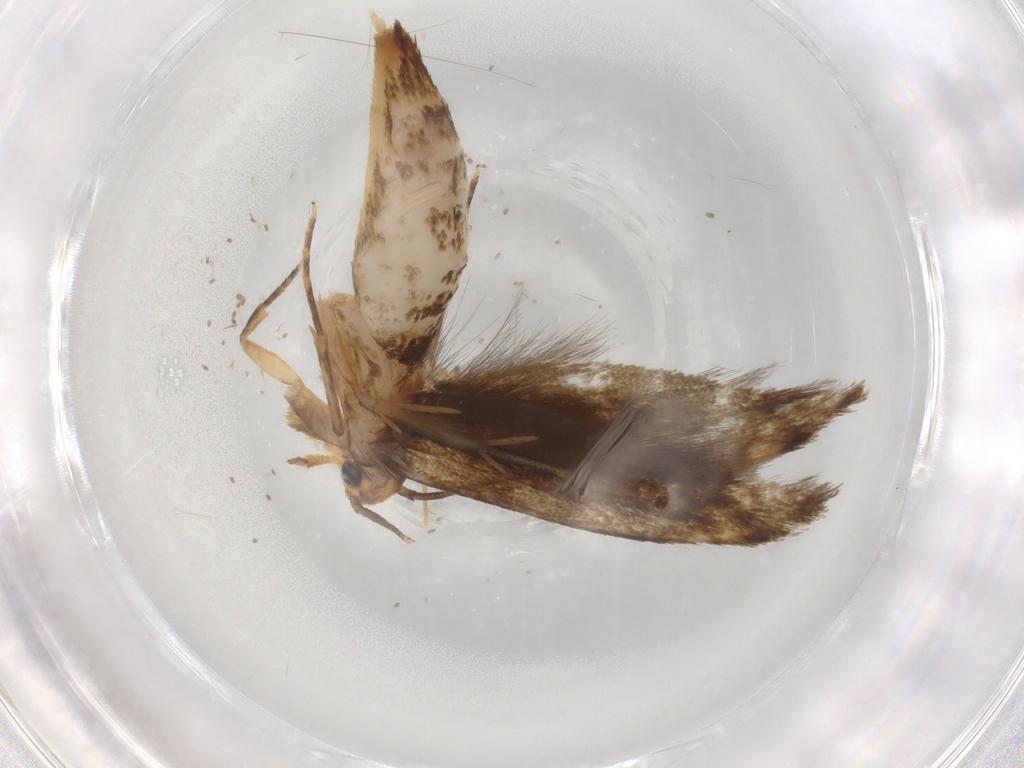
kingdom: Animalia
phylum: Arthropoda
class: Insecta
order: Lepidoptera
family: Tineidae
